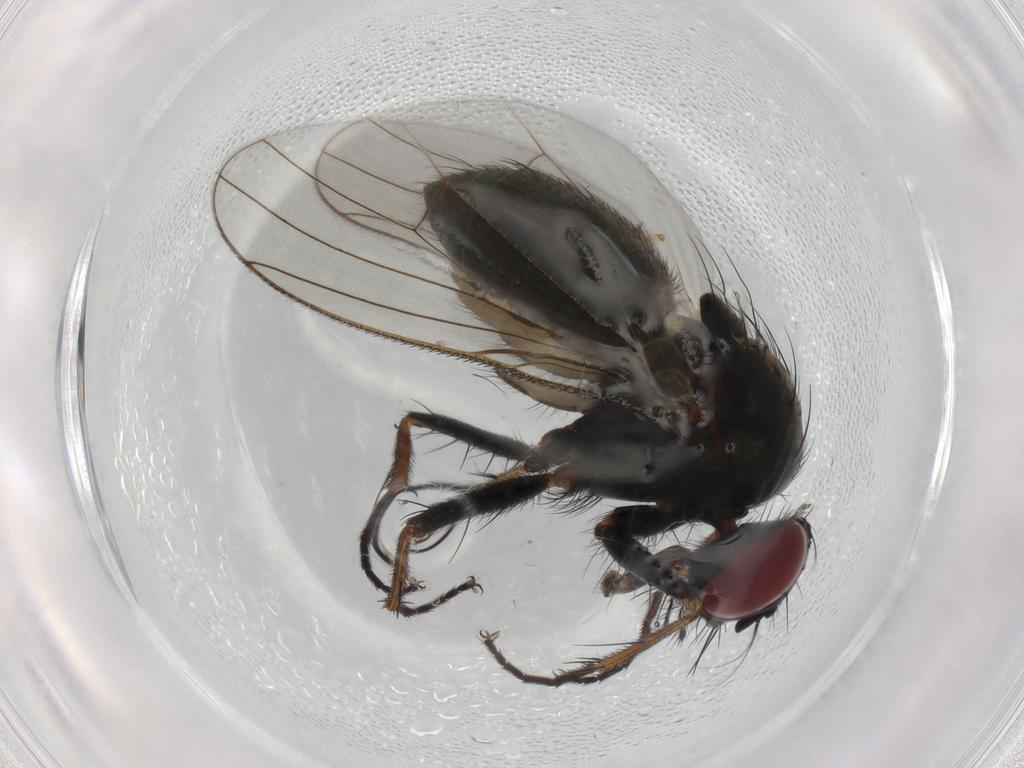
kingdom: Animalia
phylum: Arthropoda
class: Insecta
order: Diptera
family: Muscidae
